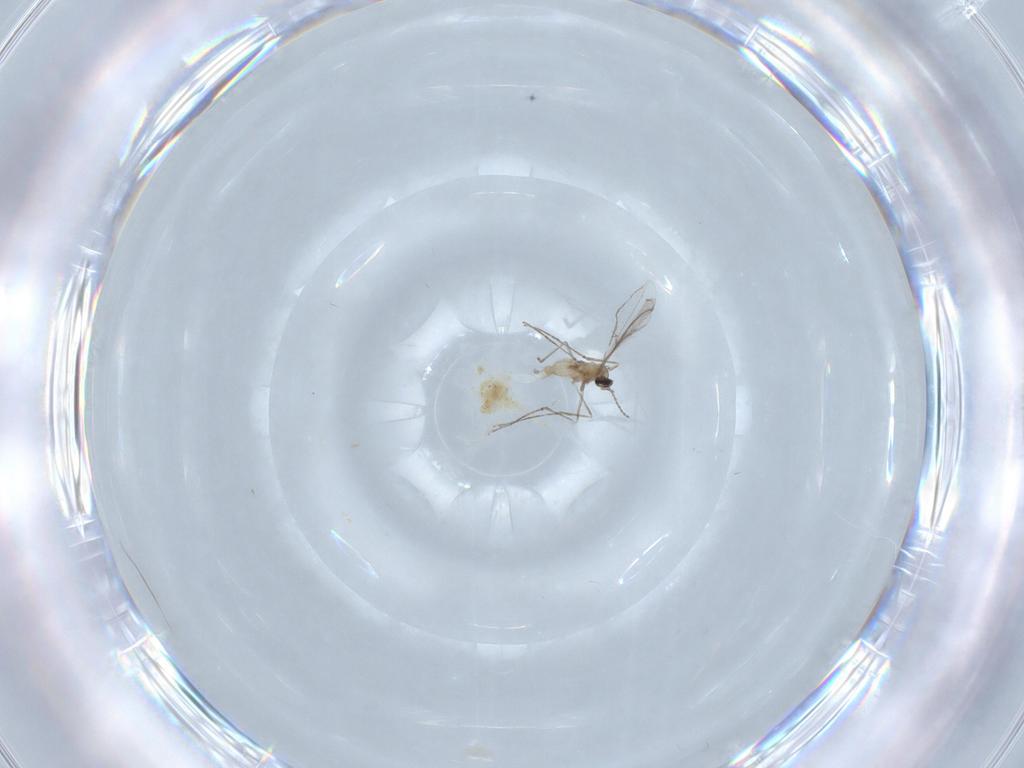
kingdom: Animalia
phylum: Arthropoda
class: Insecta
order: Diptera
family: Cecidomyiidae
